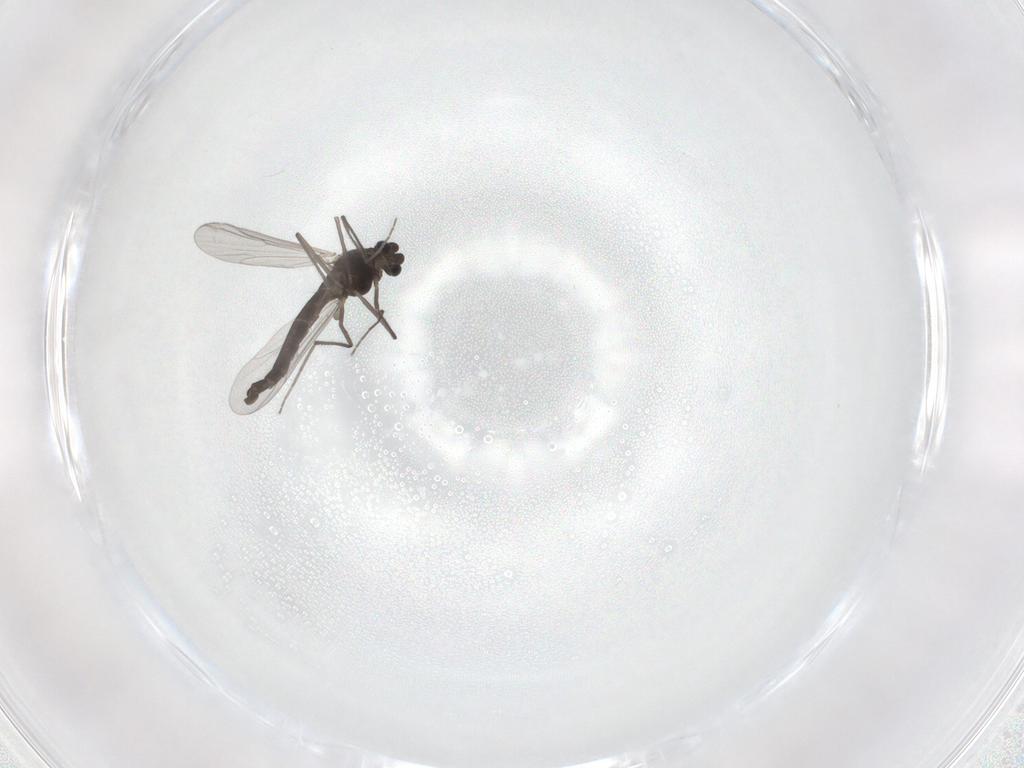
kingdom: Animalia
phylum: Arthropoda
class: Insecta
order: Diptera
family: Chironomidae
